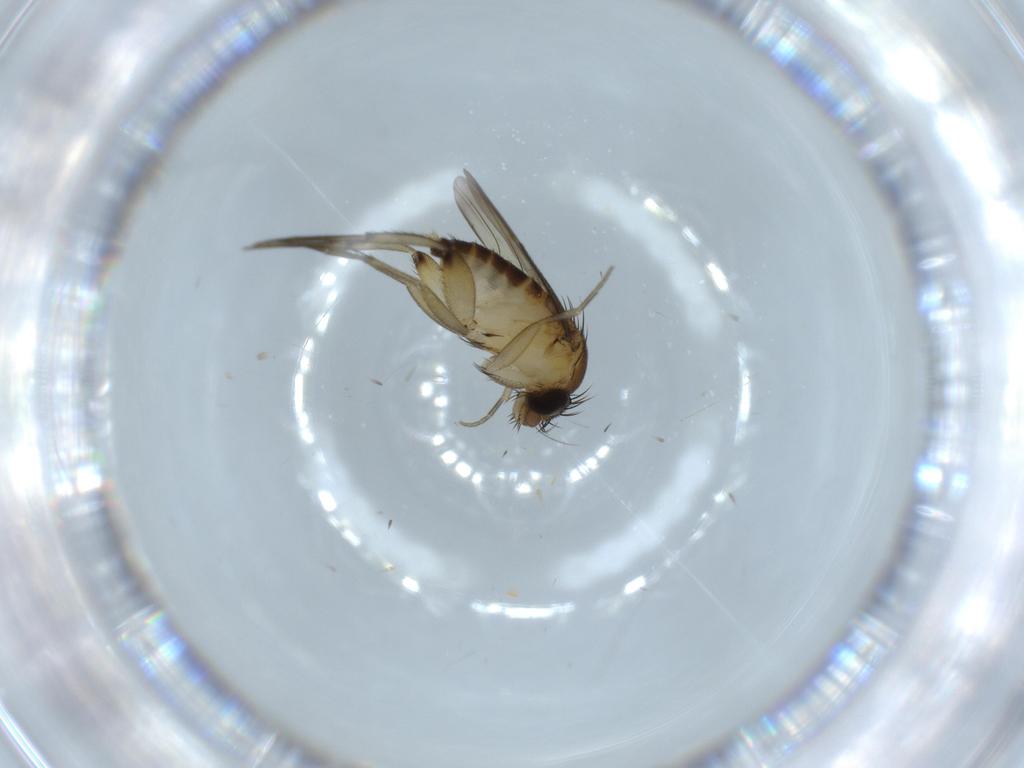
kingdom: Animalia
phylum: Arthropoda
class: Insecta
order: Diptera
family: Phoridae
